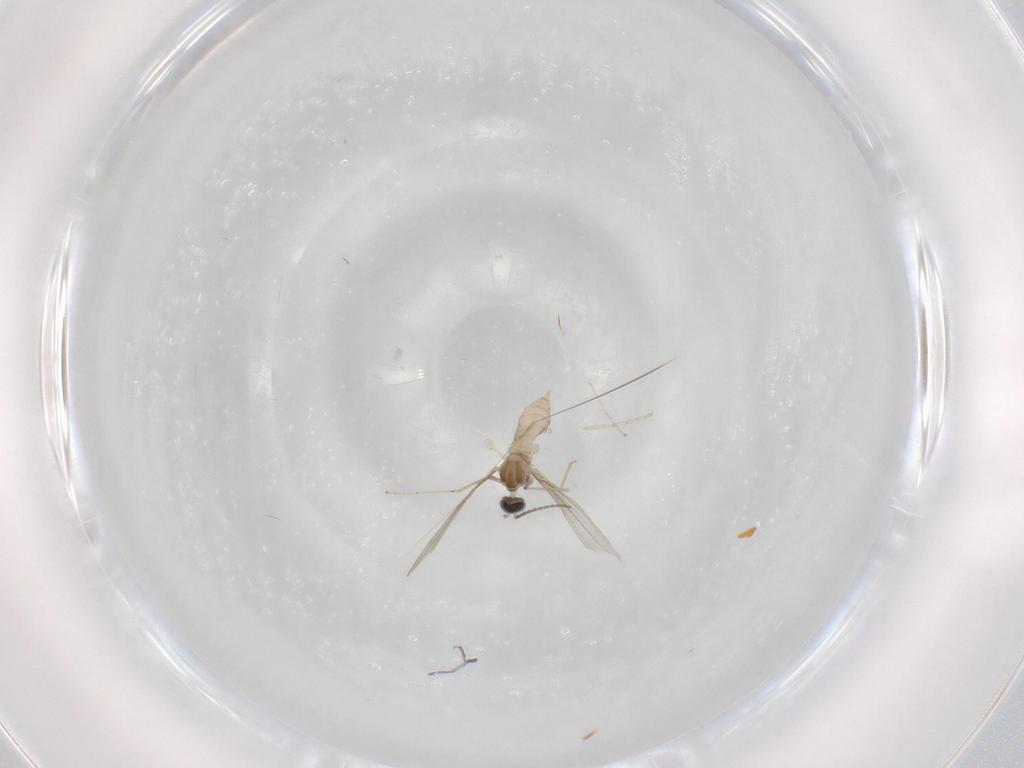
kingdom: Animalia
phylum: Arthropoda
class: Insecta
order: Diptera
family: Cecidomyiidae
